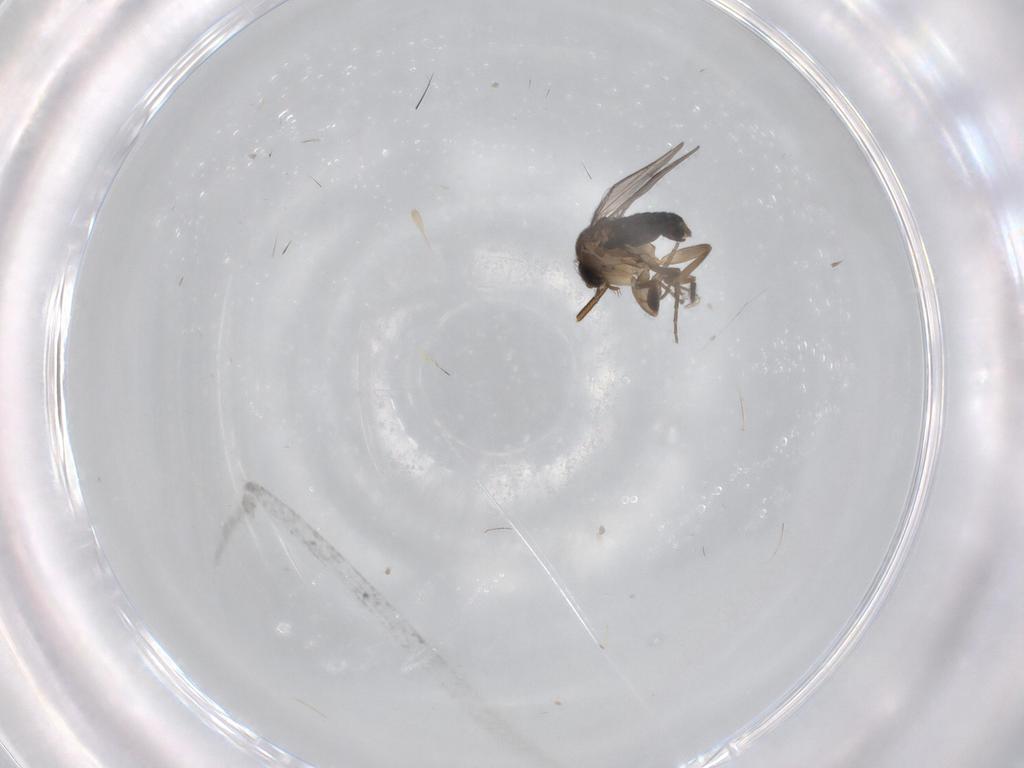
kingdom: Animalia
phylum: Arthropoda
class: Insecta
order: Diptera
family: Phoridae
